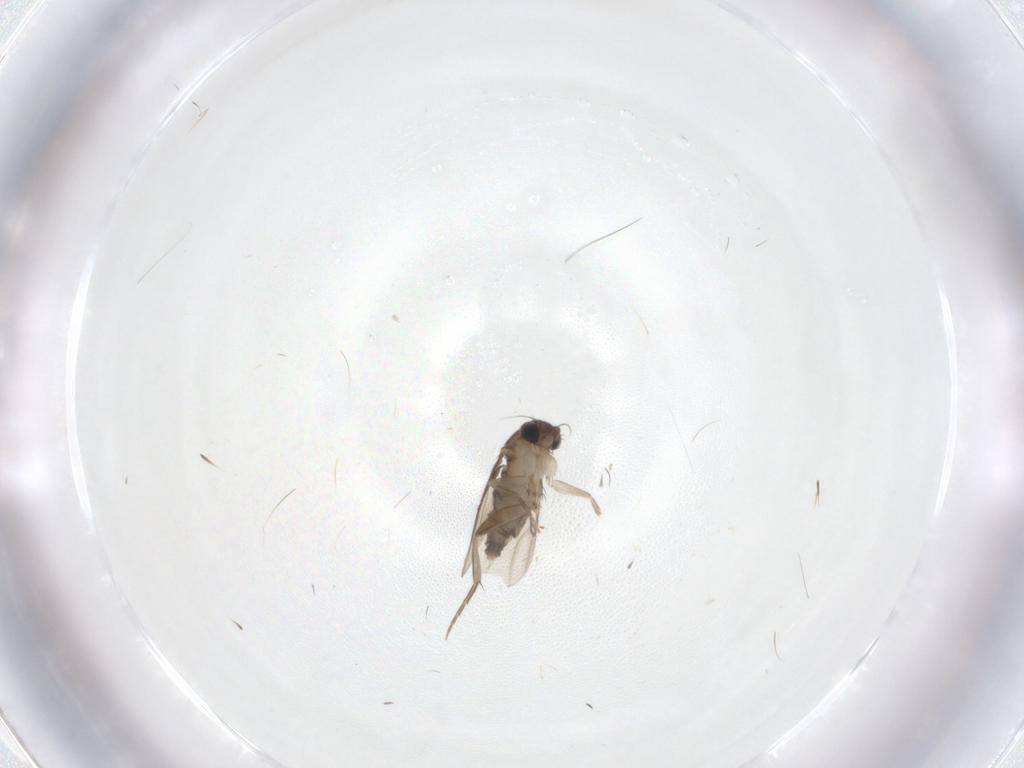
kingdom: Animalia
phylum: Arthropoda
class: Insecta
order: Diptera
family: Phoridae
